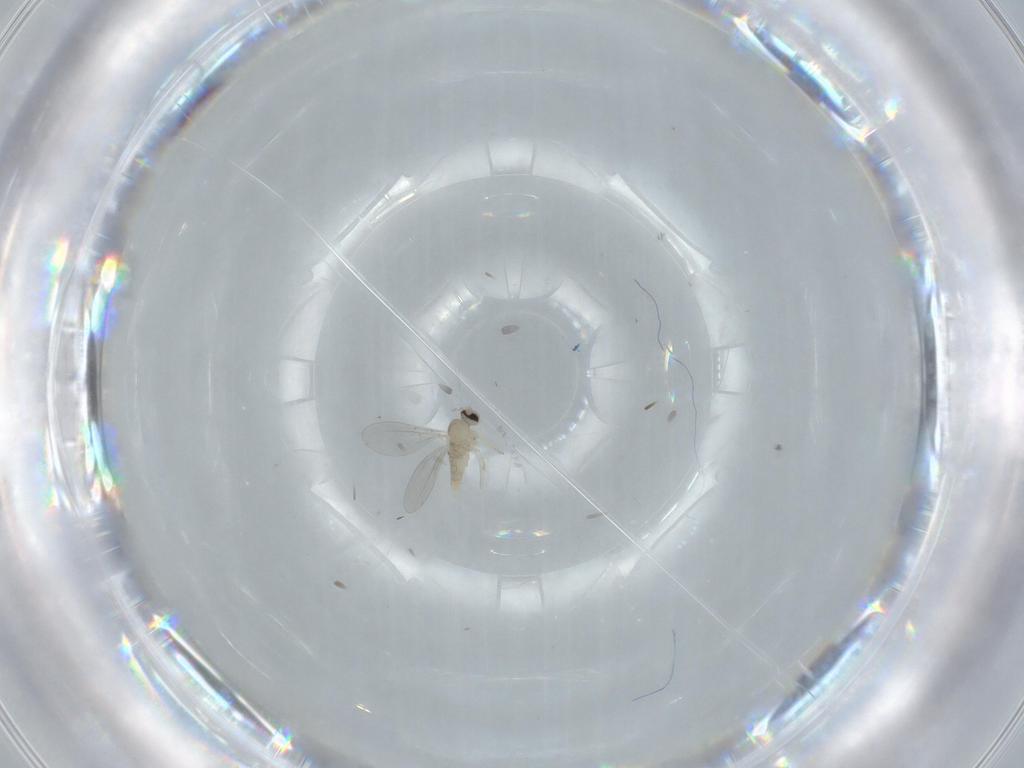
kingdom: Animalia
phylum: Arthropoda
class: Insecta
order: Diptera
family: Cecidomyiidae
